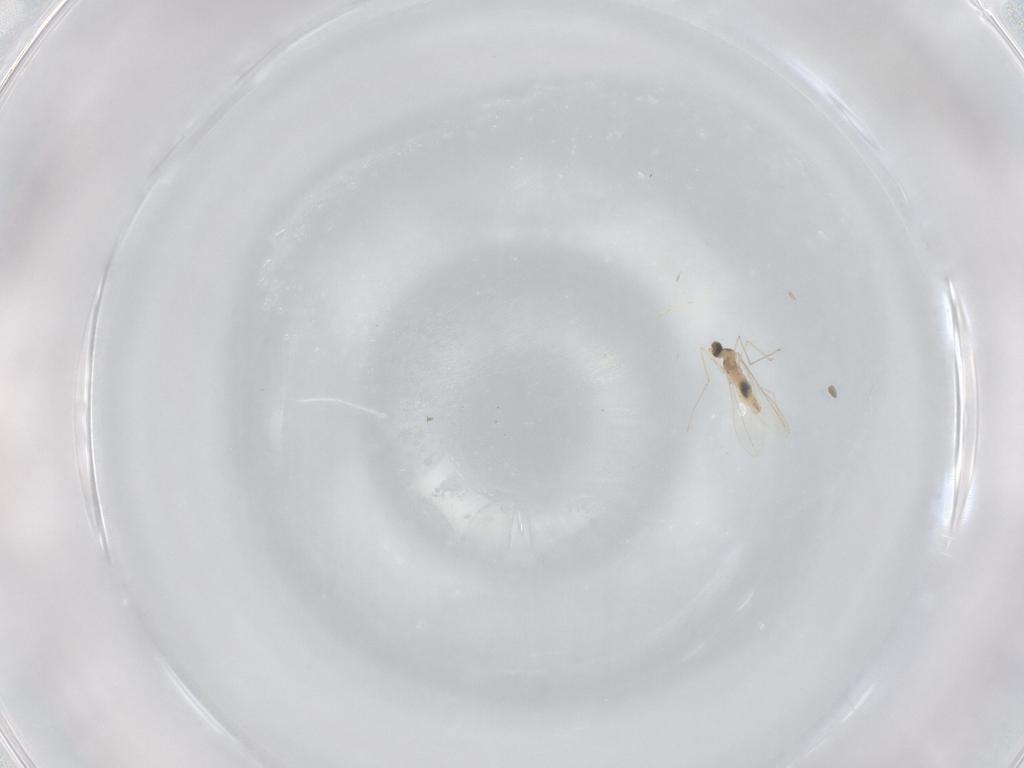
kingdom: Animalia
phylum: Arthropoda
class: Insecta
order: Diptera
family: Cecidomyiidae
